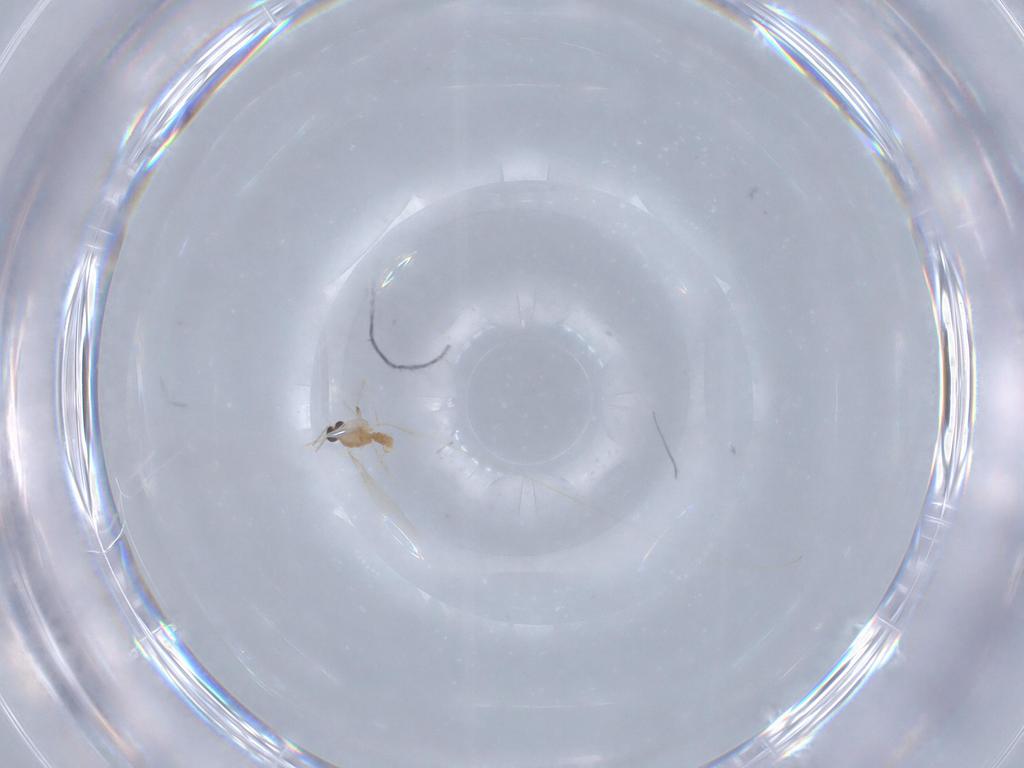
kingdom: Animalia
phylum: Arthropoda
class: Insecta
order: Diptera
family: Cecidomyiidae
